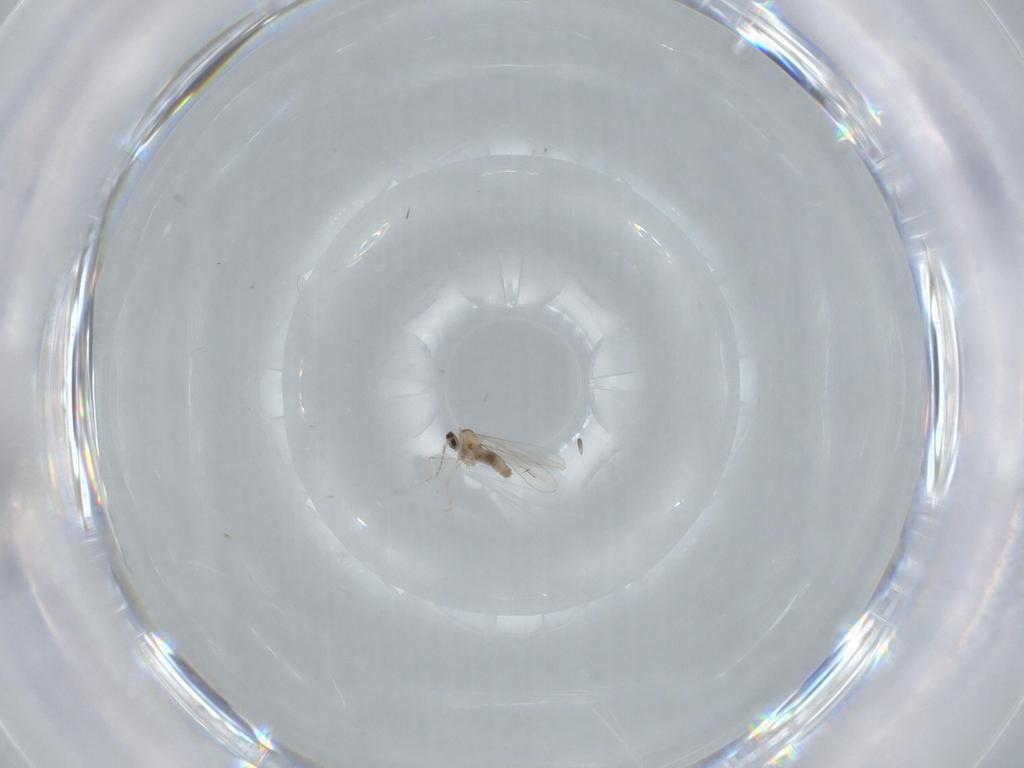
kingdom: Animalia
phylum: Arthropoda
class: Insecta
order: Diptera
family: Cecidomyiidae
